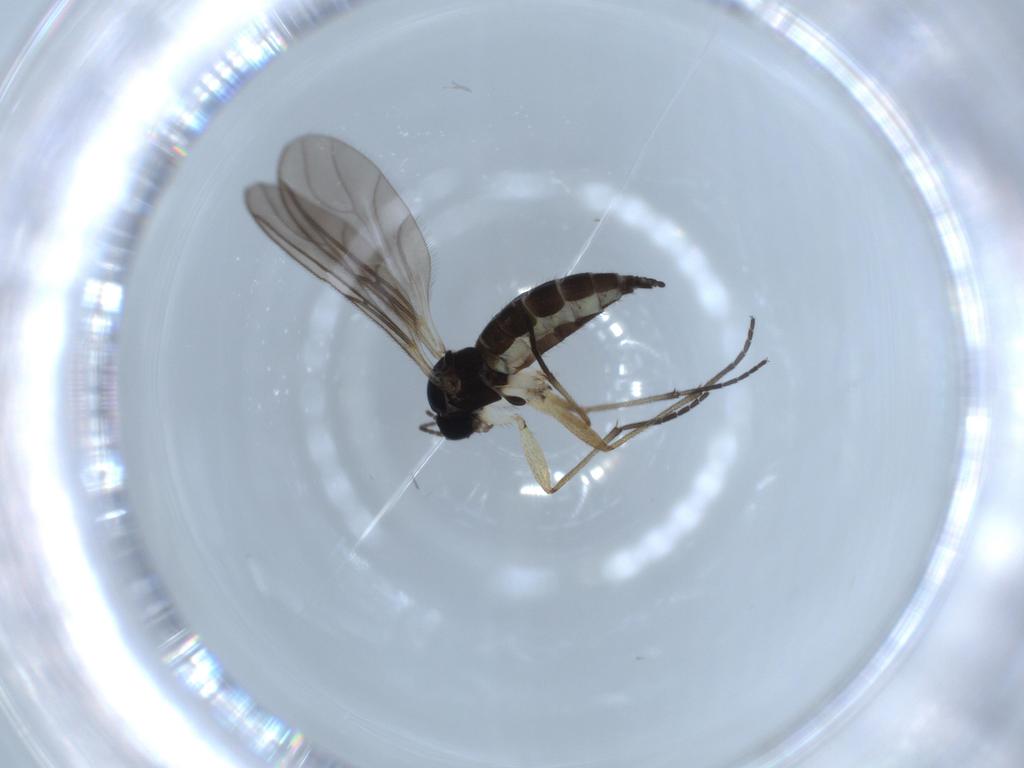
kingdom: Animalia
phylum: Arthropoda
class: Insecta
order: Diptera
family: Sciaridae
